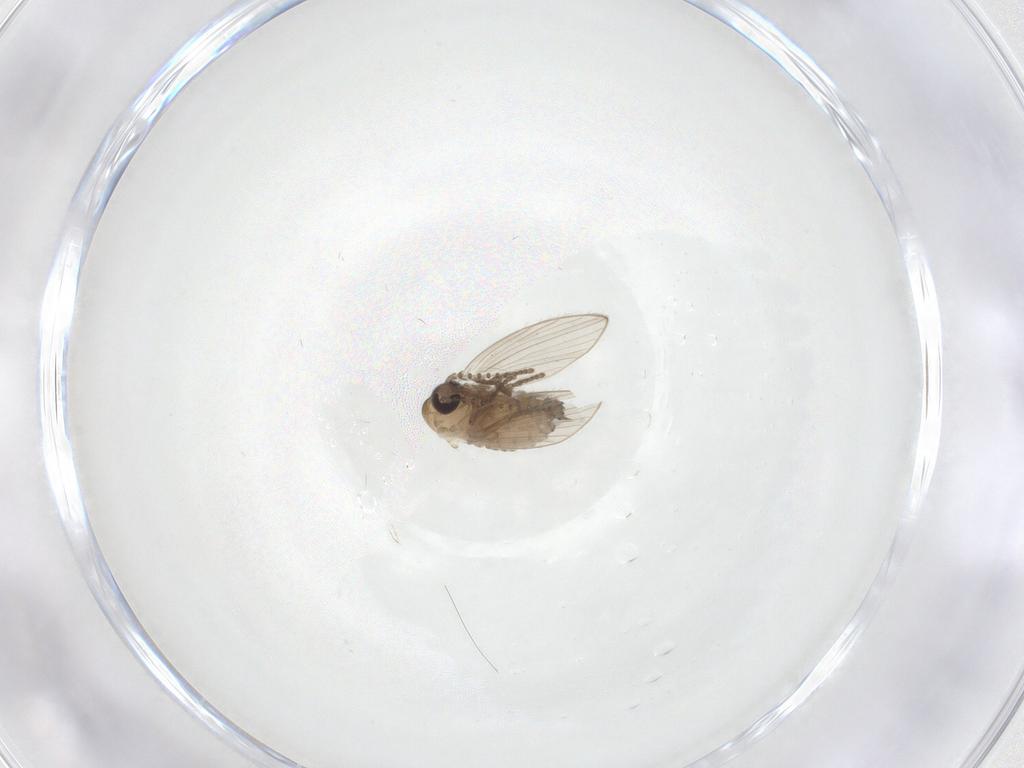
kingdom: Animalia
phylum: Arthropoda
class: Insecta
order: Diptera
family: Psychodidae
